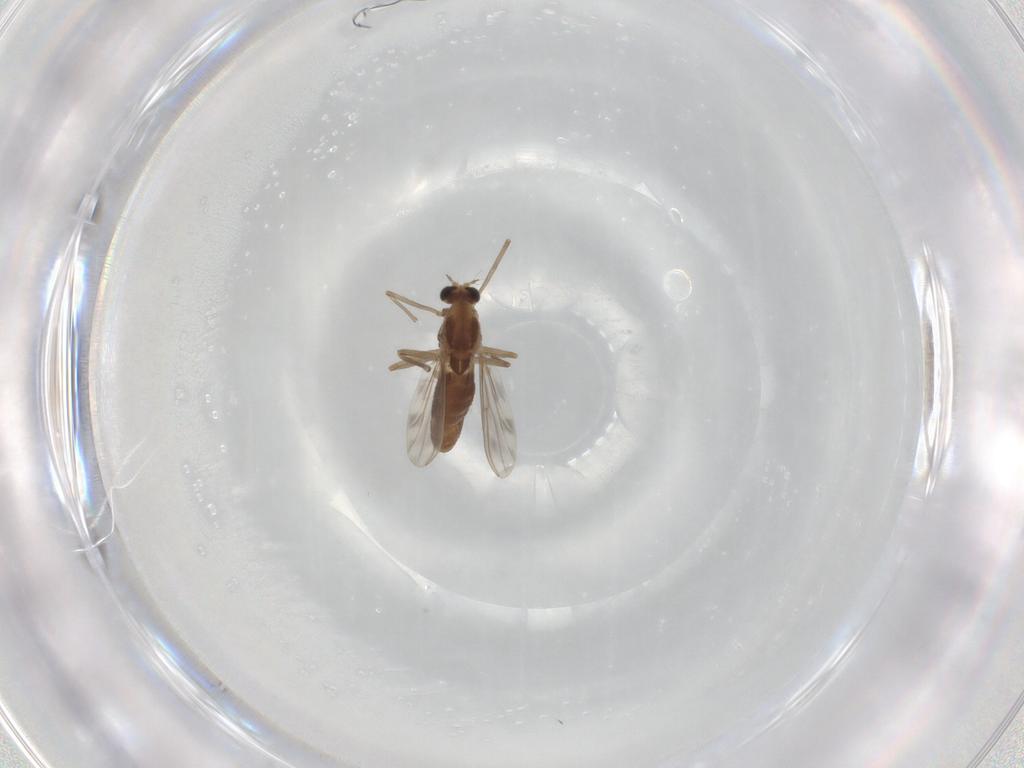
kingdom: Animalia
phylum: Arthropoda
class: Insecta
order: Diptera
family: Chironomidae
